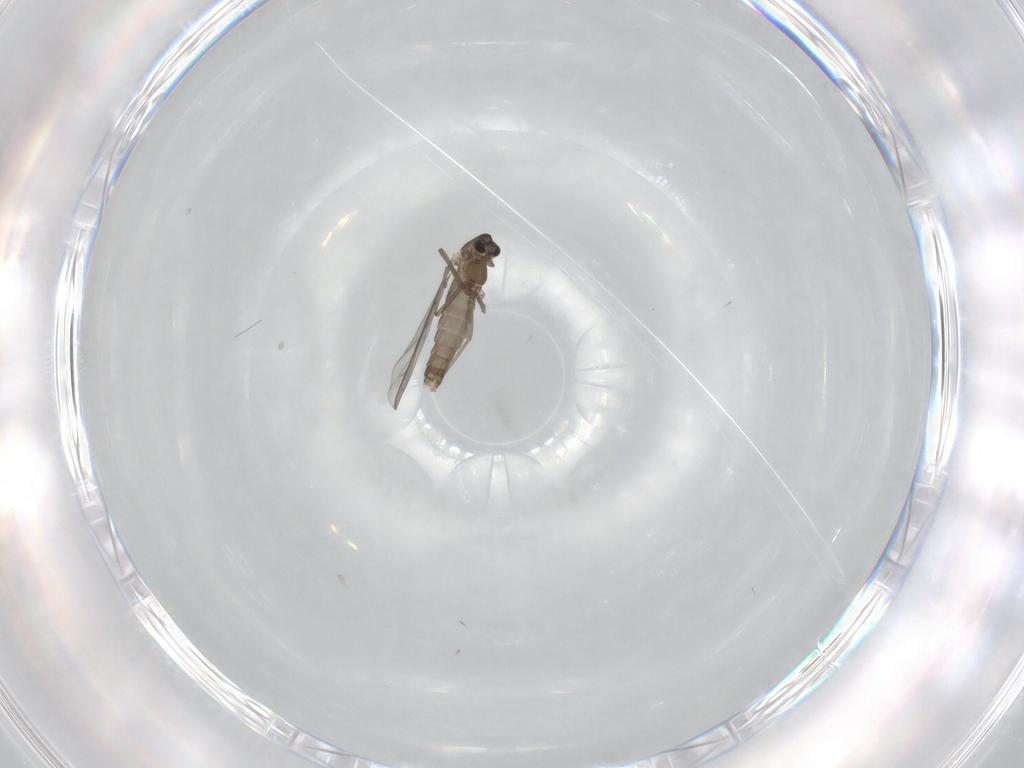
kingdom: Animalia
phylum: Arthropoda
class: Insecta
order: Diptera
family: Chironomidae
